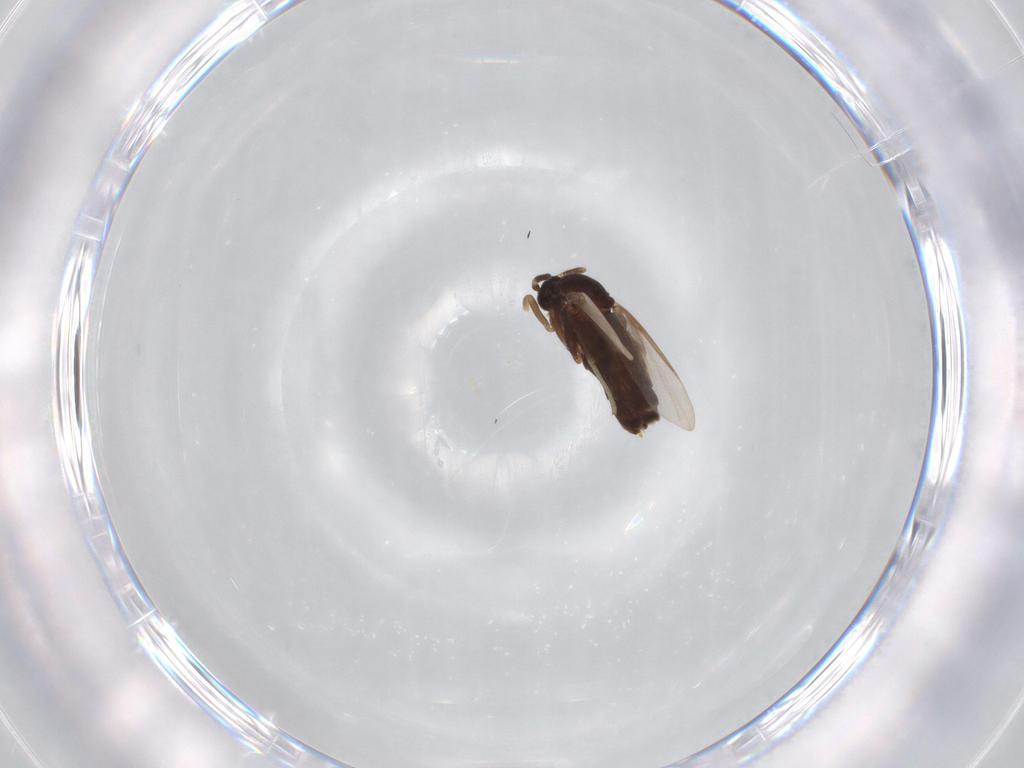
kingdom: Animalia
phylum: Arthropoda
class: Insecta
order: Diptera
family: Scatopsidae
